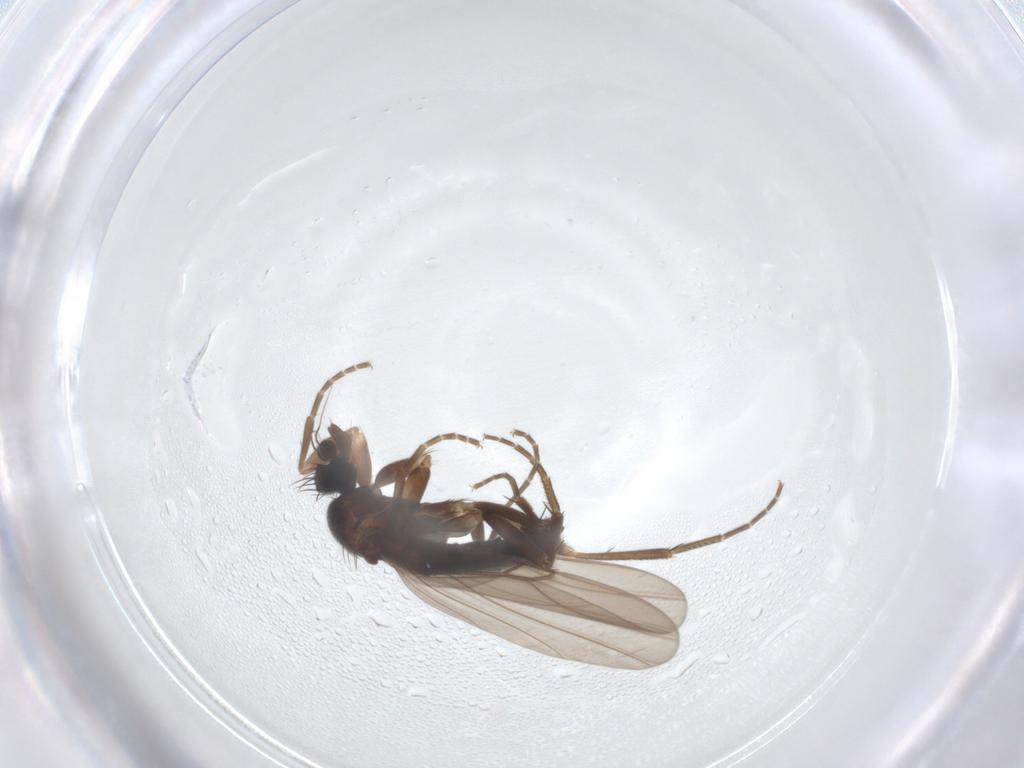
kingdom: Animalia
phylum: Arthropoda
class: Insecta
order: Diptera
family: Phoridae
